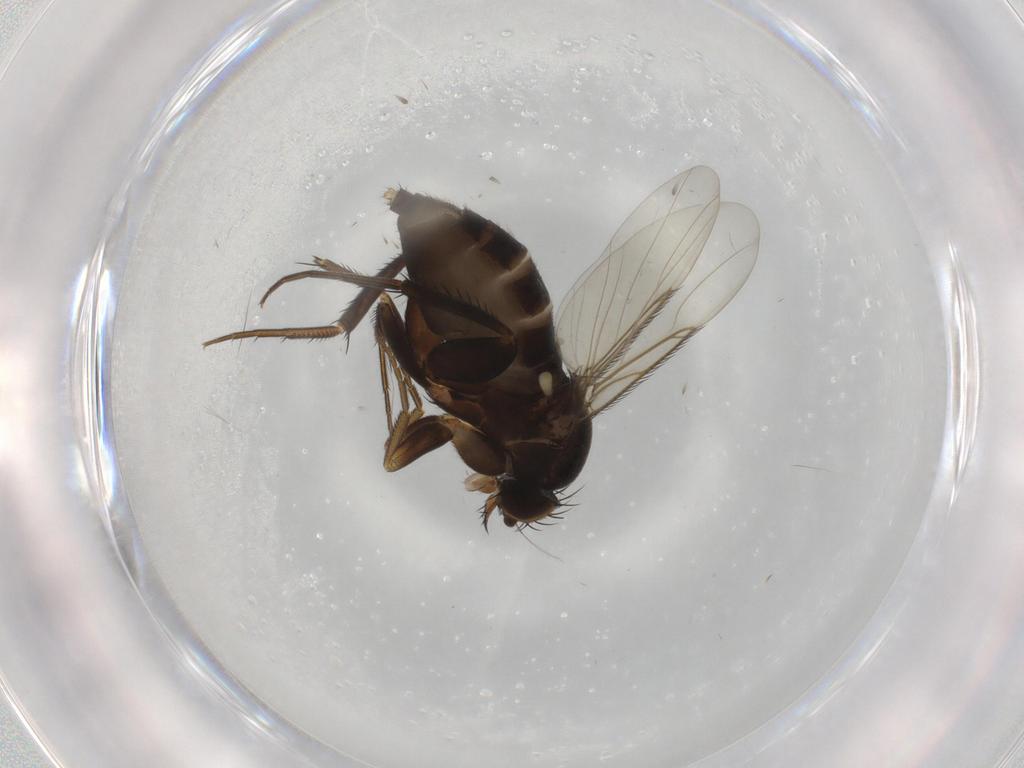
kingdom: Animalia
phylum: Arthropoda
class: Insecta
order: Diptera
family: Phoridae
